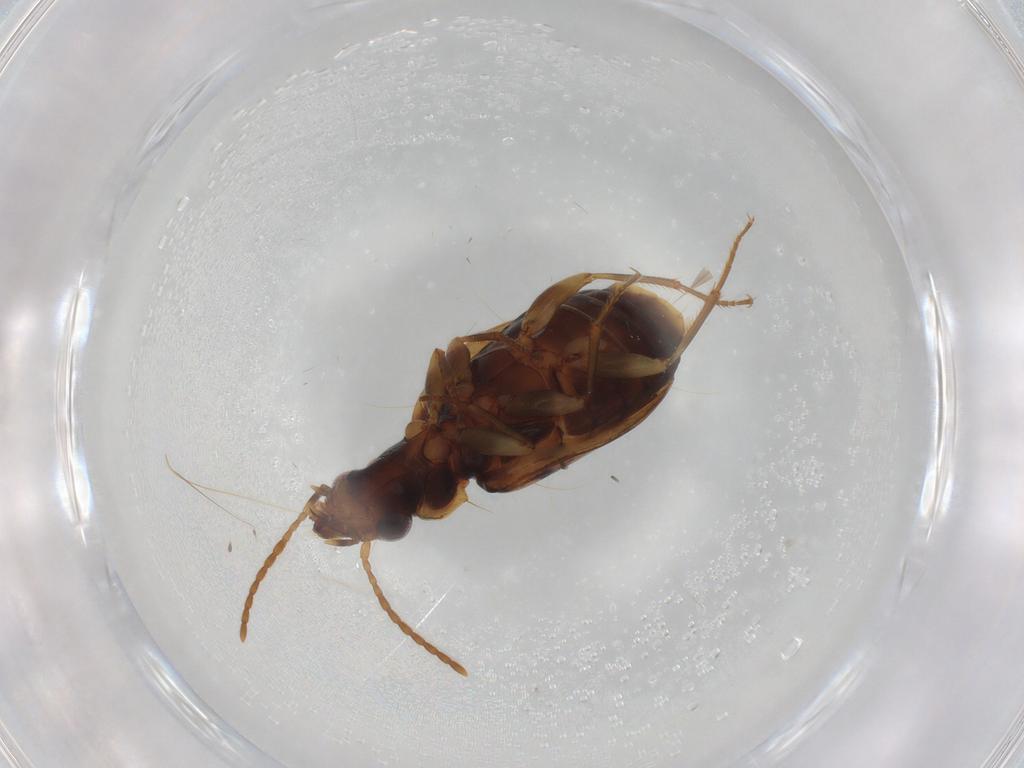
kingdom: Animalia
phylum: Arthropoda
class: Insecta
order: Coleoptera
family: Carabidae
